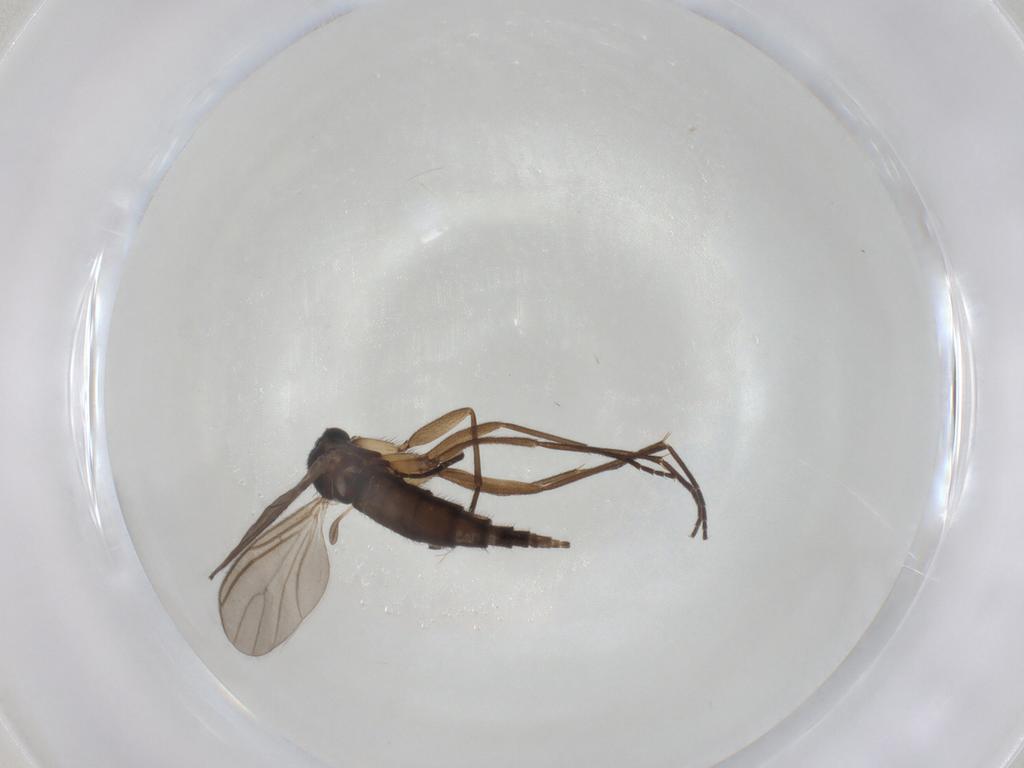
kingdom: Animalia
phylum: Arthropoda
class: Insecta
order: Diptera
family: Sciaridae
